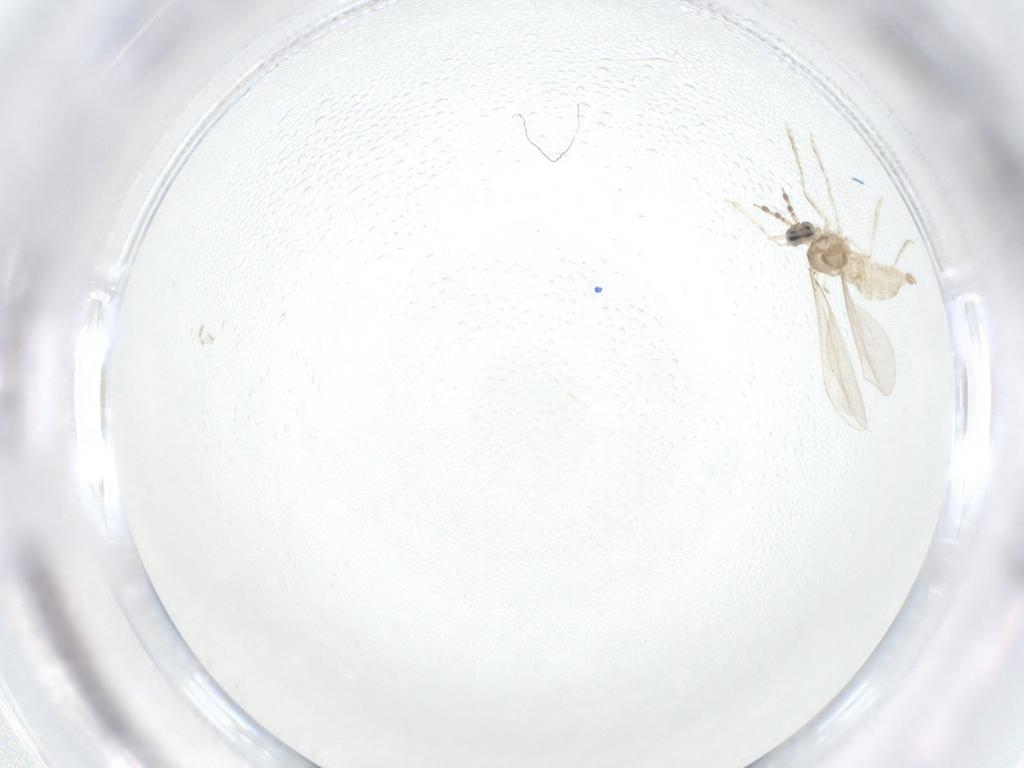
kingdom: Animalia
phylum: Arthropoda
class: Insecta
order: Diptera
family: Cecidomyiidae
